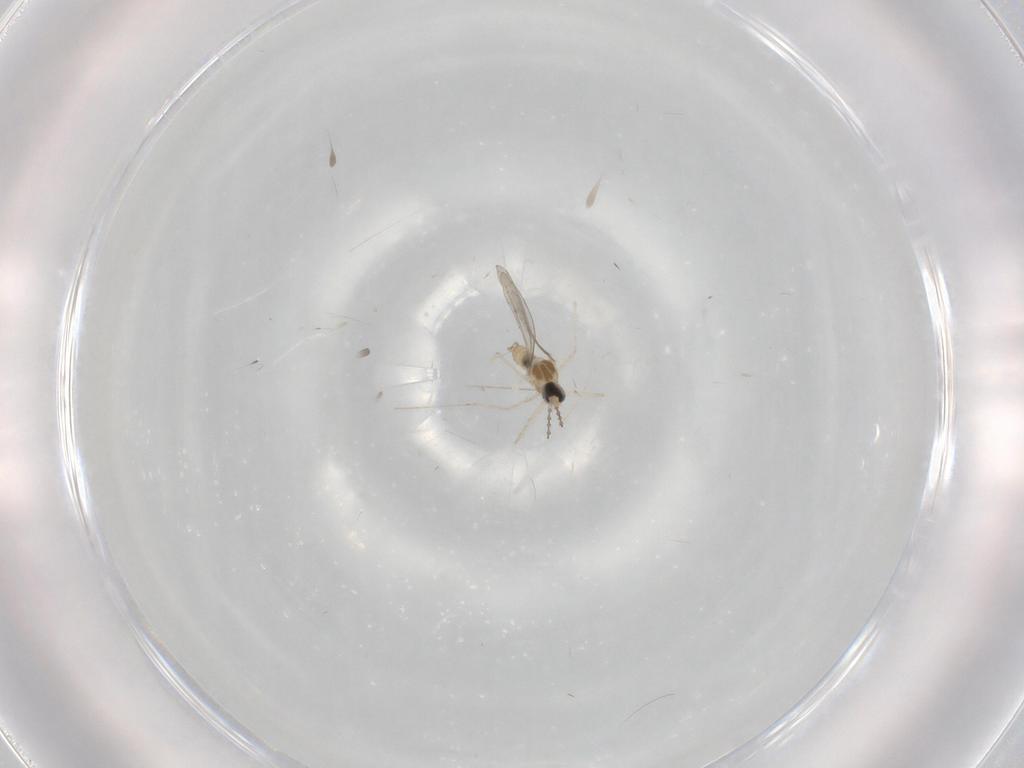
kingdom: Animalia
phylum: Arthropoda
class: Insecta
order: Diptera
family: Cecidomyiidae
